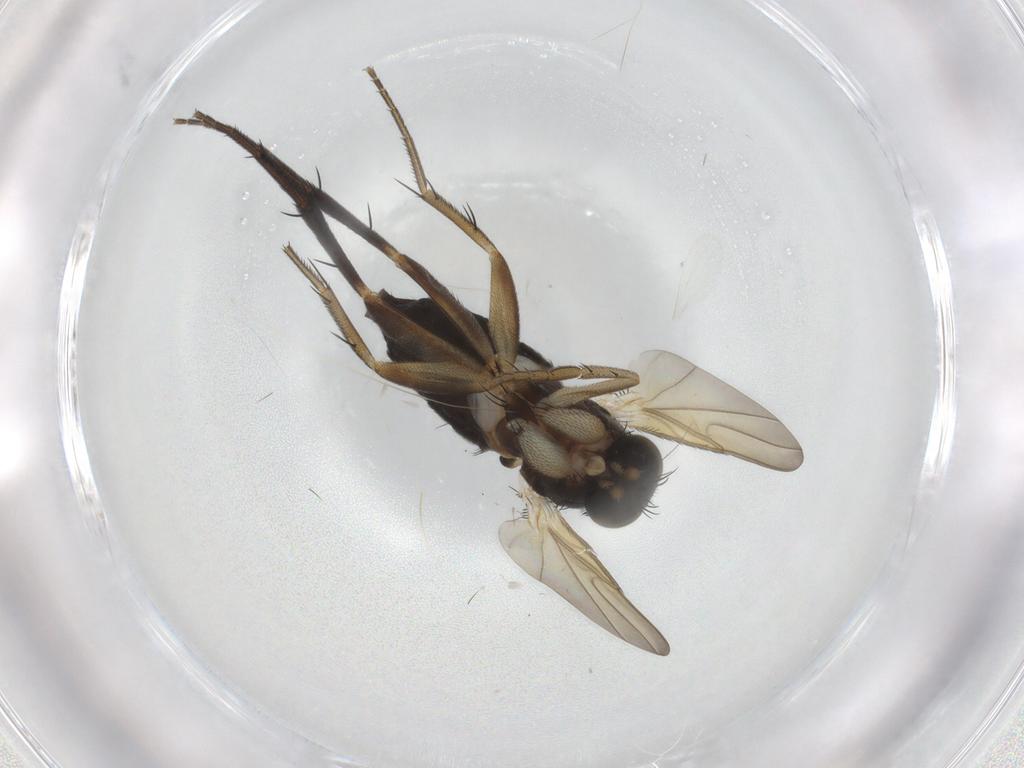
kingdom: Animalia
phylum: Arthropoda
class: Insecta
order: Diptera
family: Phoridae
